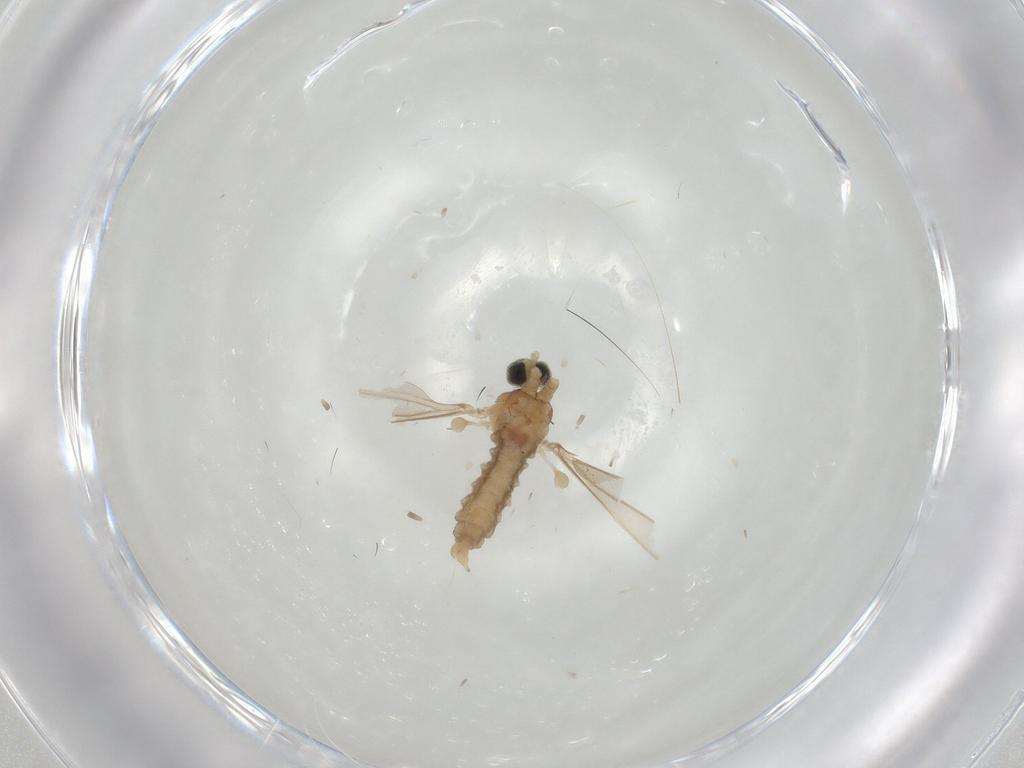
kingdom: Animalia
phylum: Arthropoda
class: Insecta
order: Diptera
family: Cecidomyiidae
